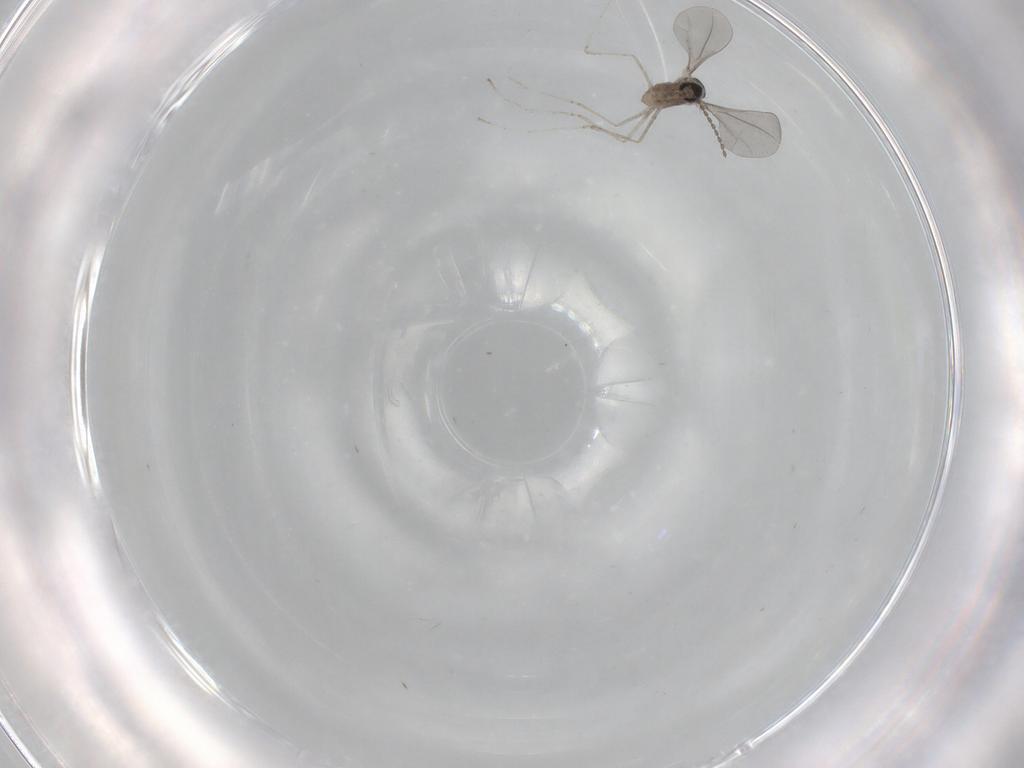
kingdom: Animalia
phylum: Arthropoda
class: Insecta
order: Diptera
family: Cecidomyiidae
